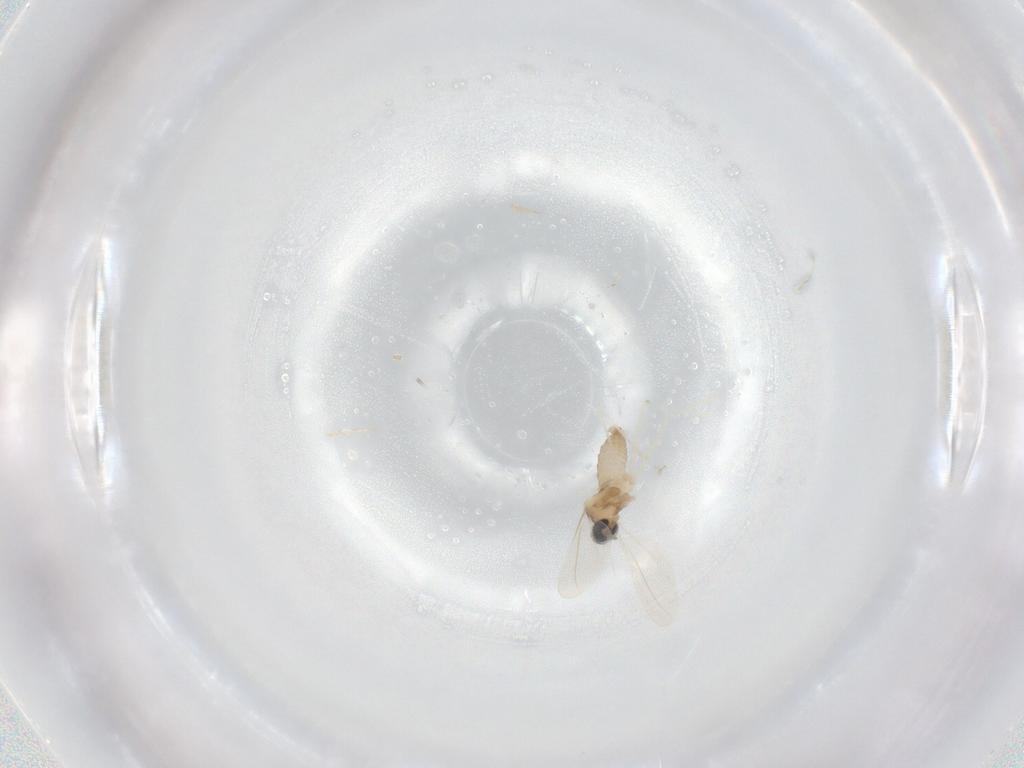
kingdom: Animalia
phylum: Arthropoda
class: Insecta
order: Diptera
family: Cecidomyiidae
